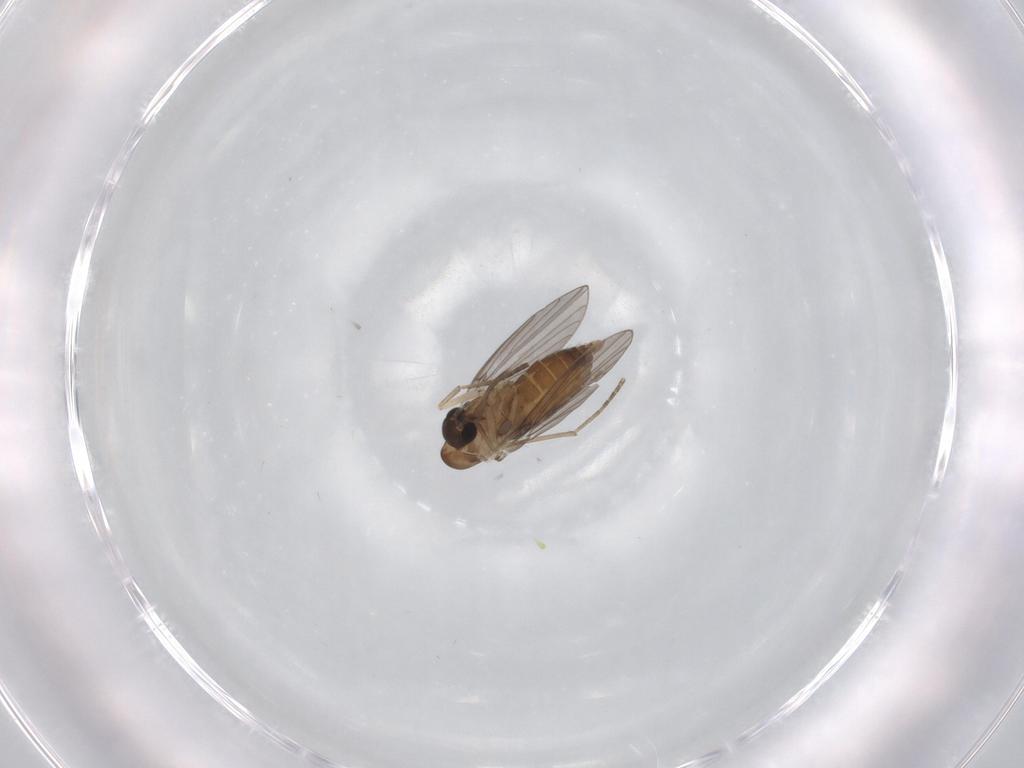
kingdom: Animalia
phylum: Arthropoda
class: Insecta
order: Diptera
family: Psychodidae
